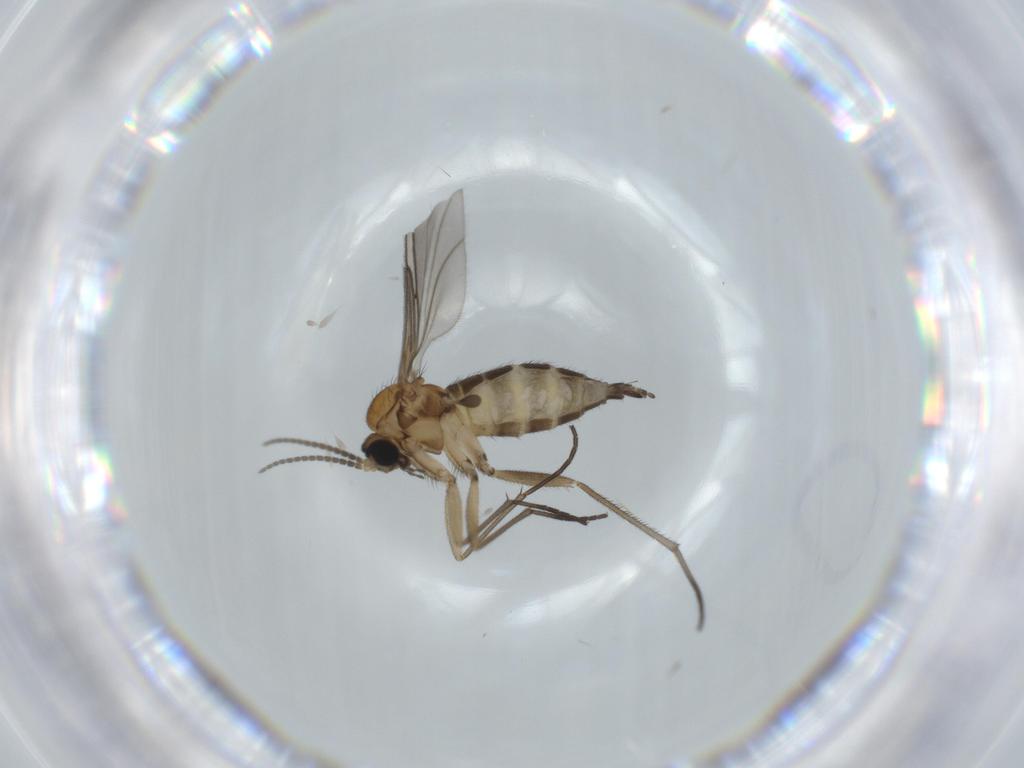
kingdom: Animalia
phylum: Arthropoda
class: Insecta
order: Diptera
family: Sciaridae
